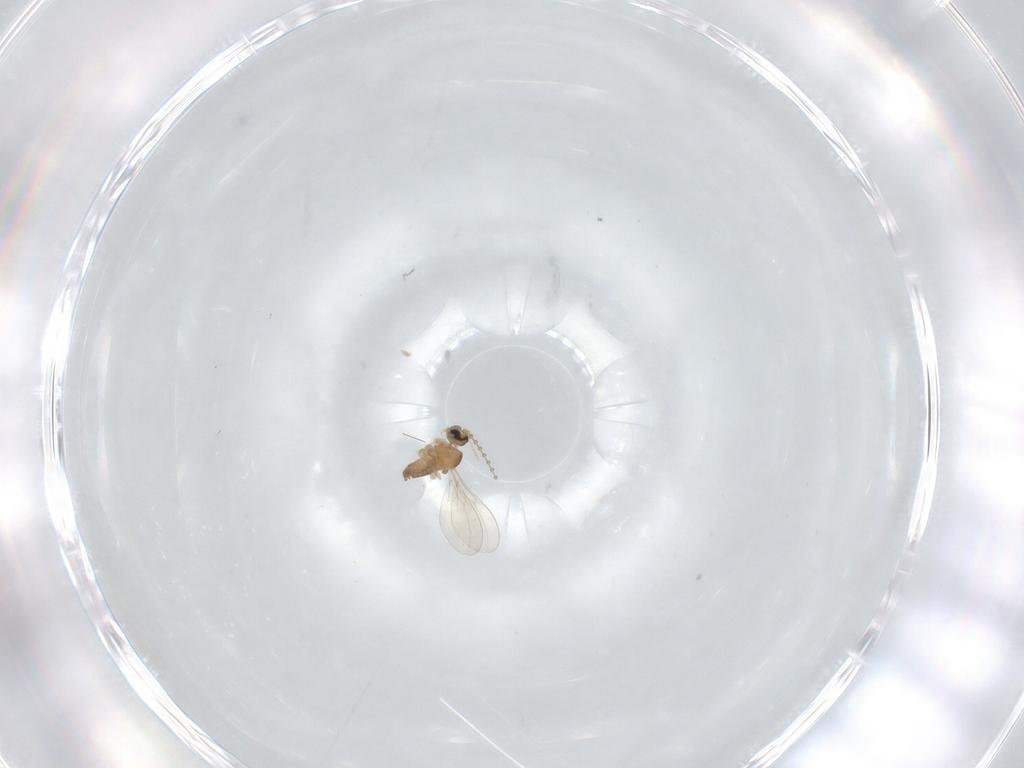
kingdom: Animalia
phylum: Arthropoda
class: Insecta
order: Diptera
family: Cecidomyiidae
